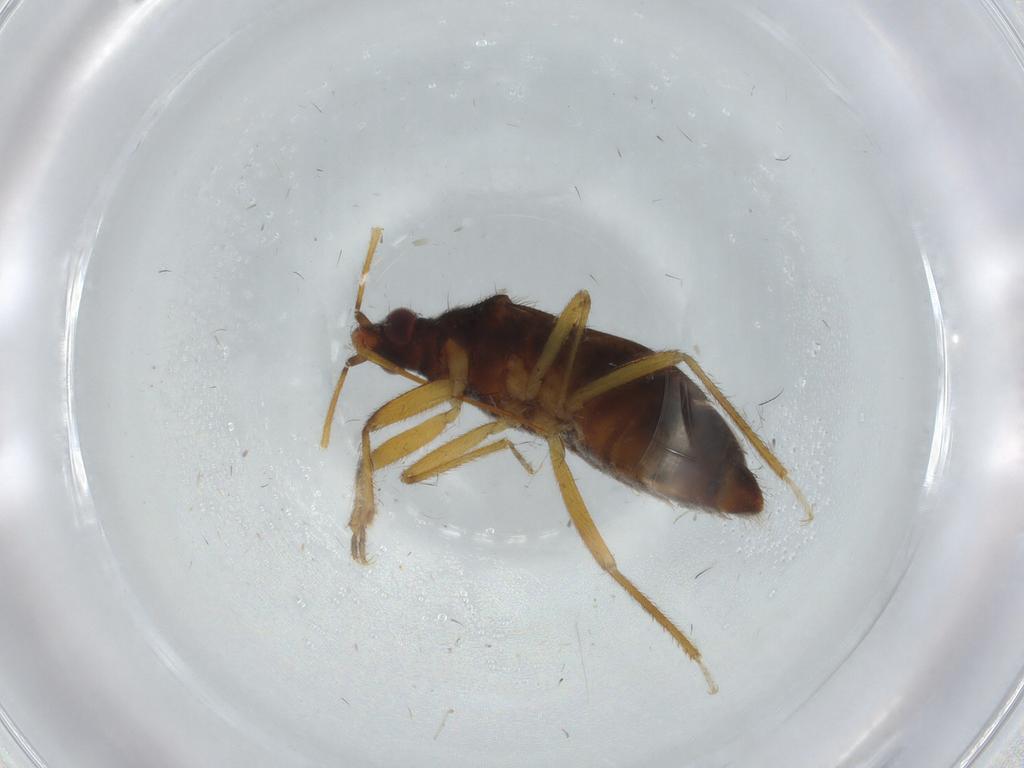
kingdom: Animalia
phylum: Arthropoda
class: Insecta
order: Hemiptera
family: Anthocoridae
